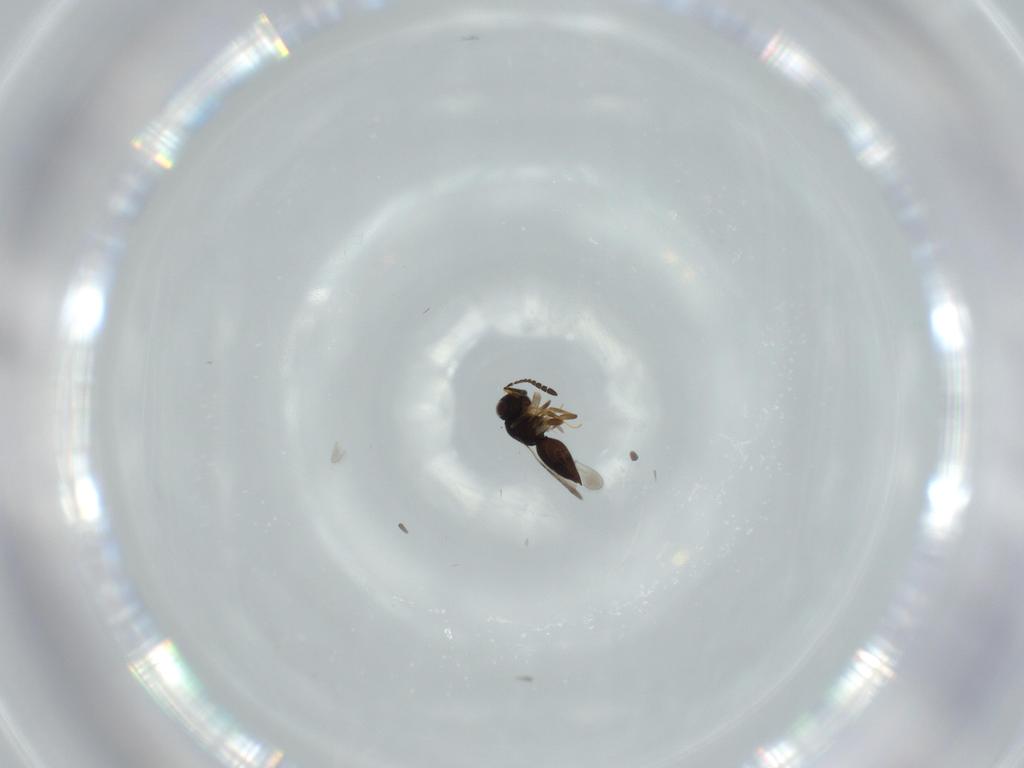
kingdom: Animalia
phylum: Arthropoda
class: Insecta
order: Hymenoptera
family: Ceraphronidae
